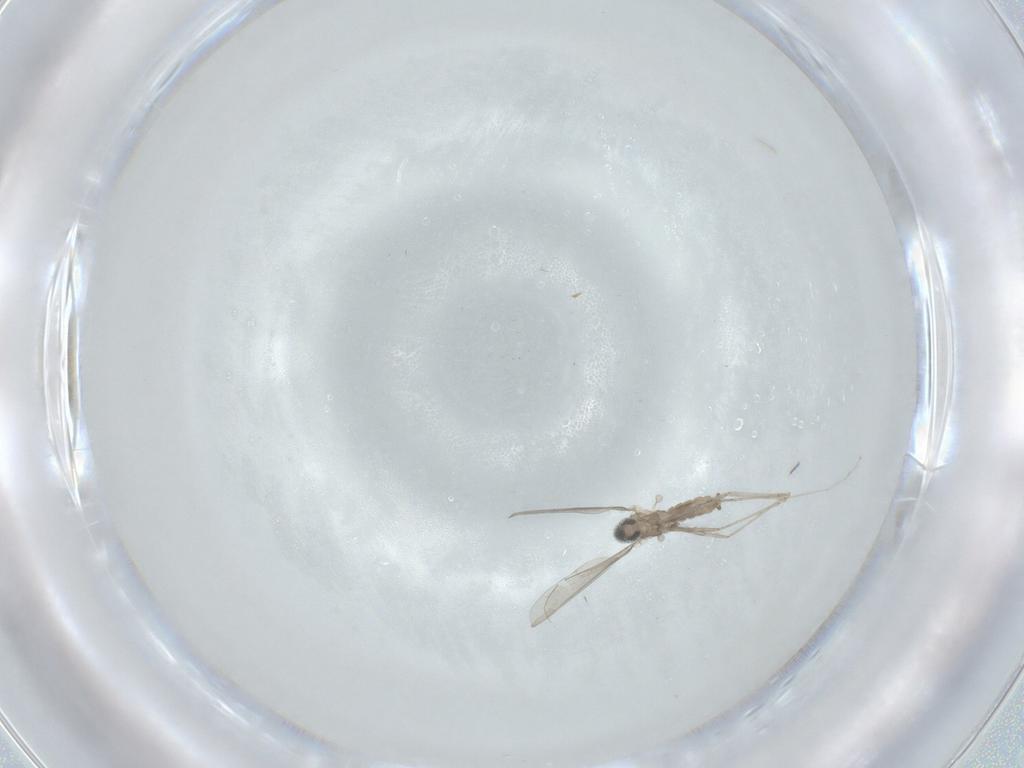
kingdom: Animalia
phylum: Arthropoda
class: Insecta
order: Diptera
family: Cecidomyiidae
